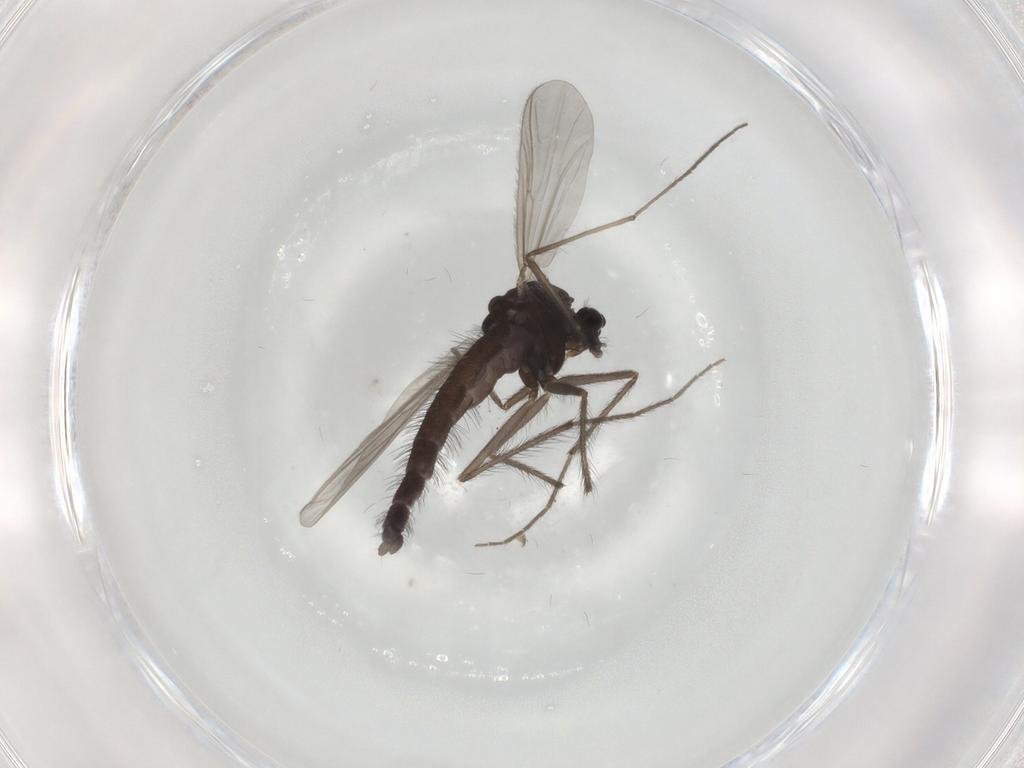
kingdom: Animalia
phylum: Arthropoda
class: Insecta
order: Diptera
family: Chironomidae
